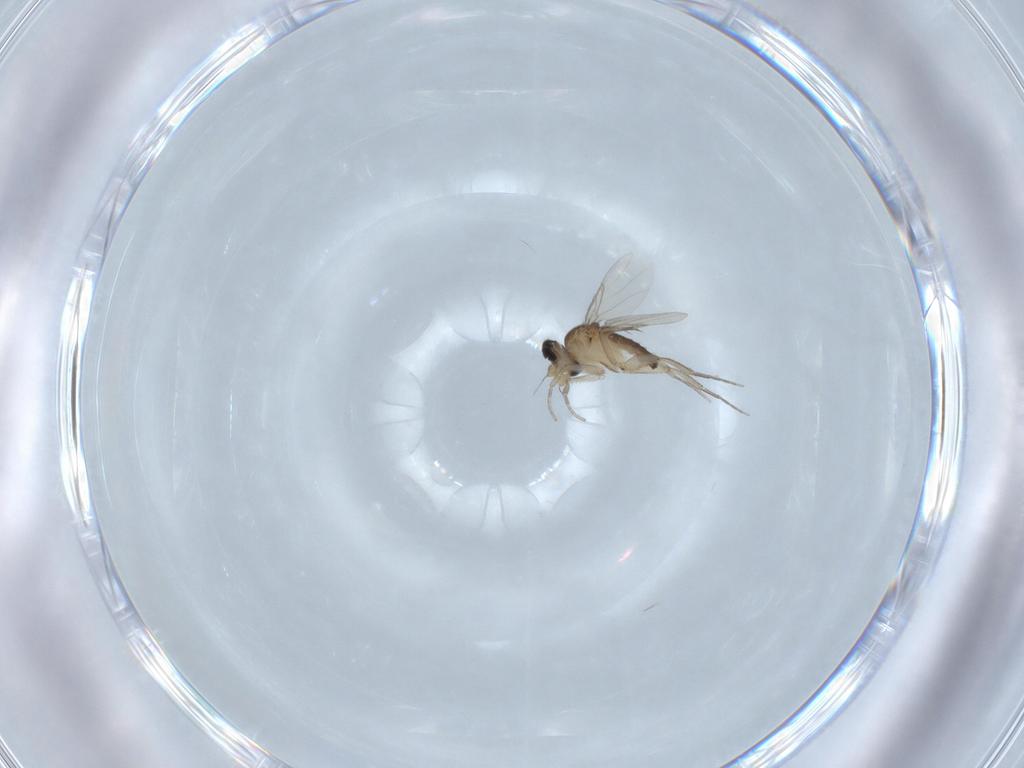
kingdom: Animalia
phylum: Arthropoda
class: Insecta
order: Diptera
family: Phoridae
